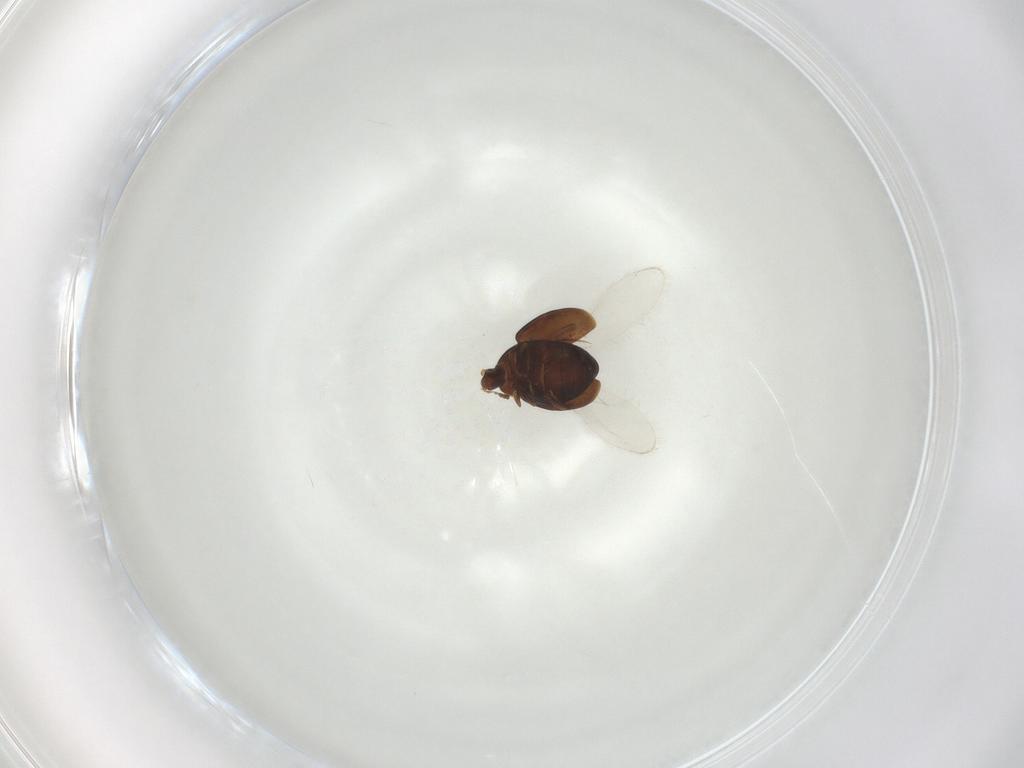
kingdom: Animalia
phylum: Arthropoda
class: Insecta
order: Coleoptera
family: Corylophidae
